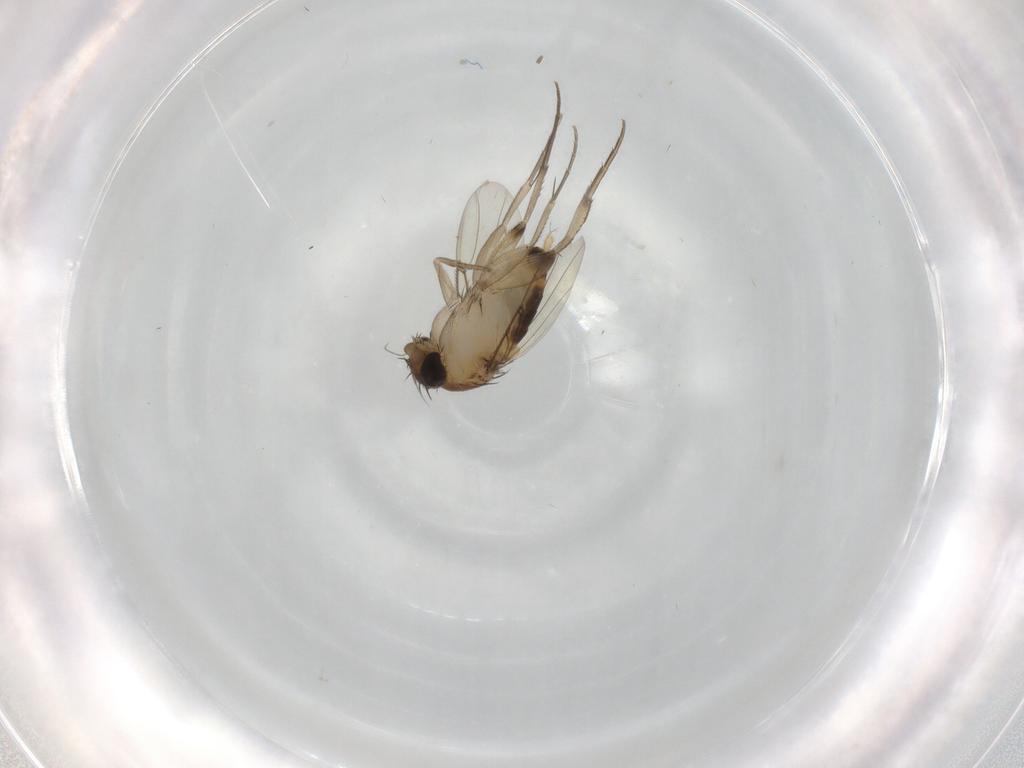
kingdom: Animalia
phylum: Arthropoda
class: Insecta
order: Diptera
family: Phoridae
